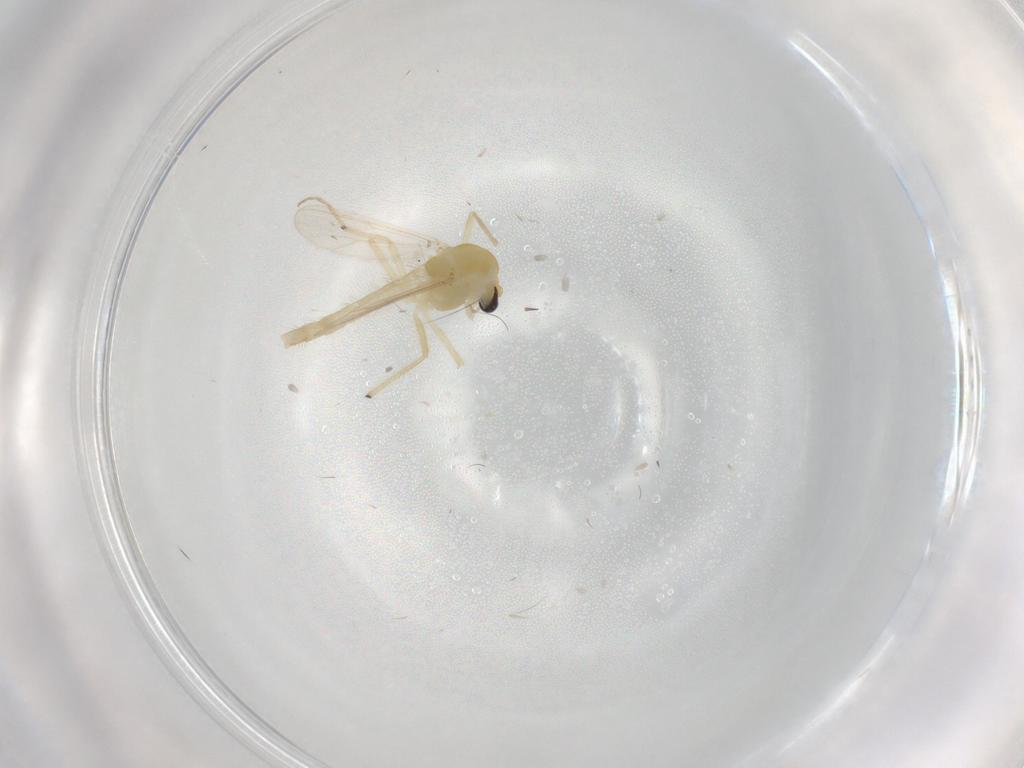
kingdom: Animalia
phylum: Arthropoda
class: Insecta
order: Diptera
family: Chironomidae
